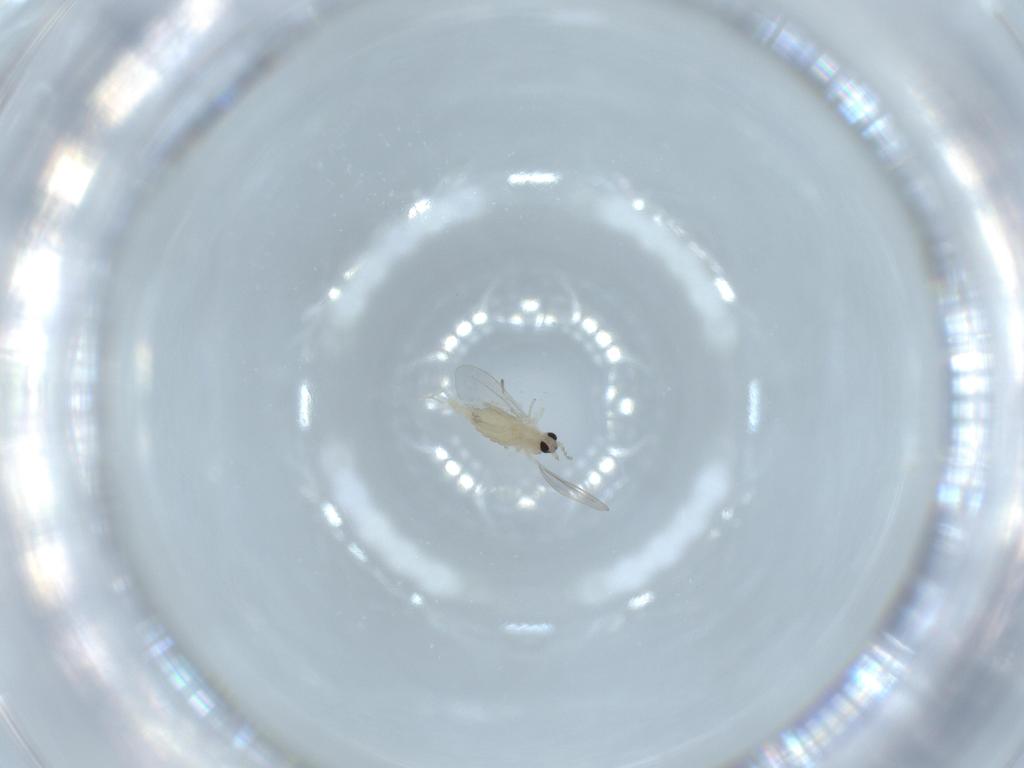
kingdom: Animalia
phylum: Arthropoda
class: Insecta
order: Diptera
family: Cecidomyiidae
